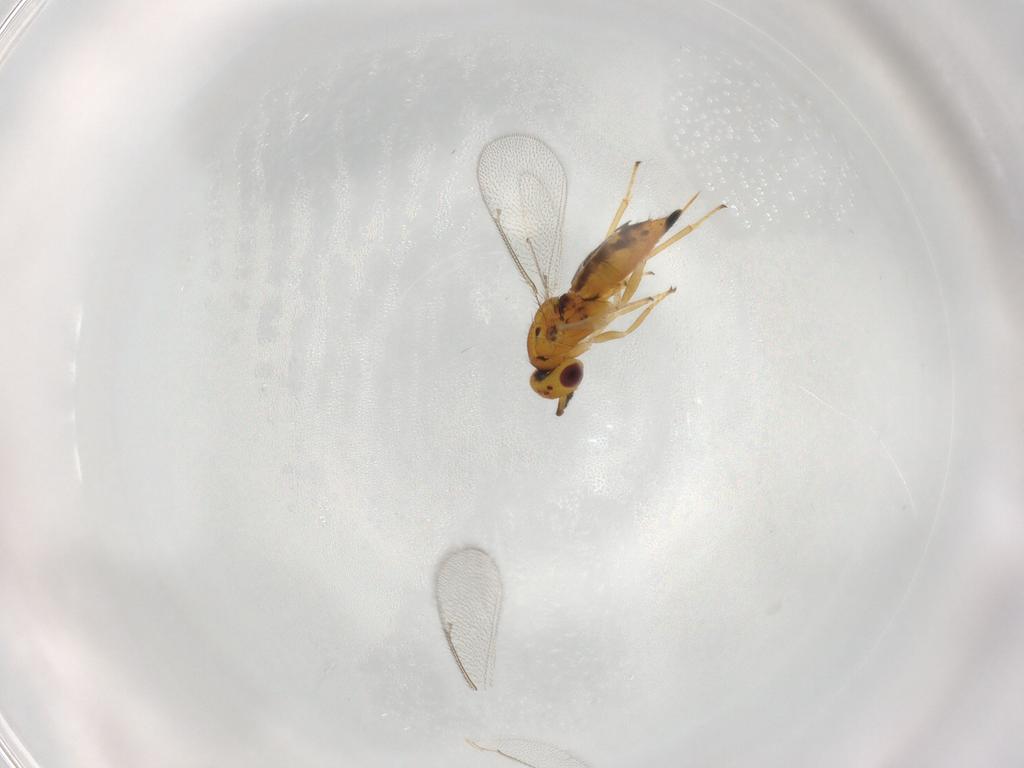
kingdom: Animalia
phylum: Arthropoda
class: Insecta
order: Hymenoptera
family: Eulophidae
